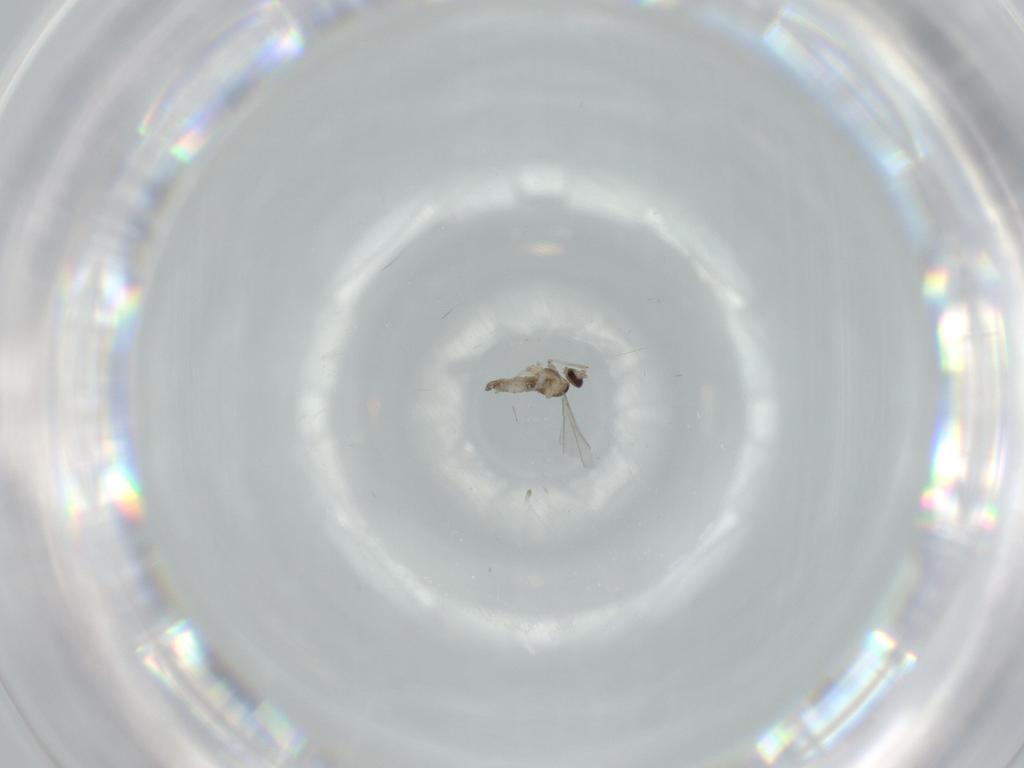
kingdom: Animalia
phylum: Arthropoda
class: Insecta
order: Diptera
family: Cecidomyiidae
